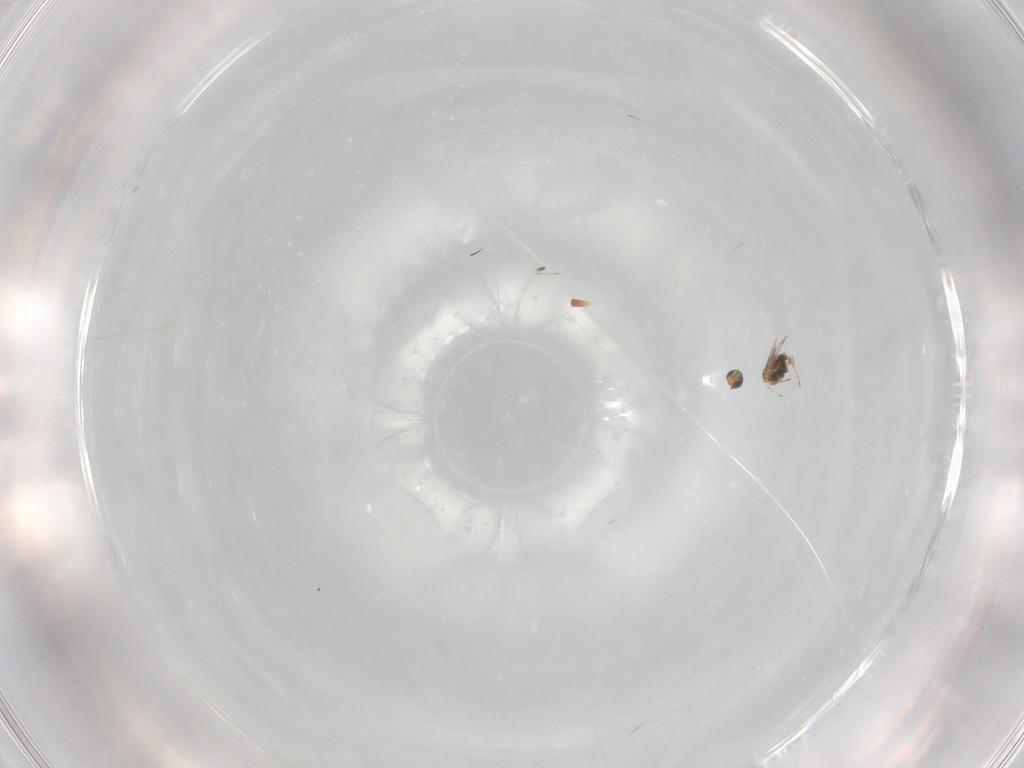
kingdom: Animalia
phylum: Arthropoda
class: Insecta
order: Hymenoptera
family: Trichogrammatidae
